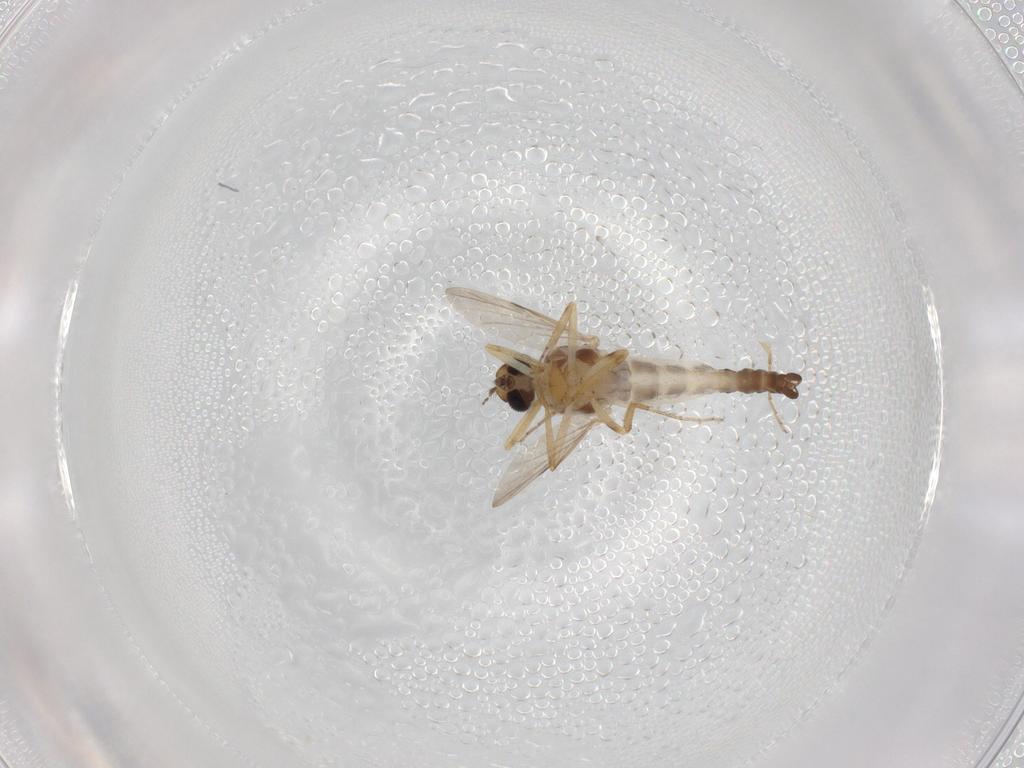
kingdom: Animalia
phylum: Arthropoda
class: Insecta
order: Diptera
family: Ceratopogonidae
